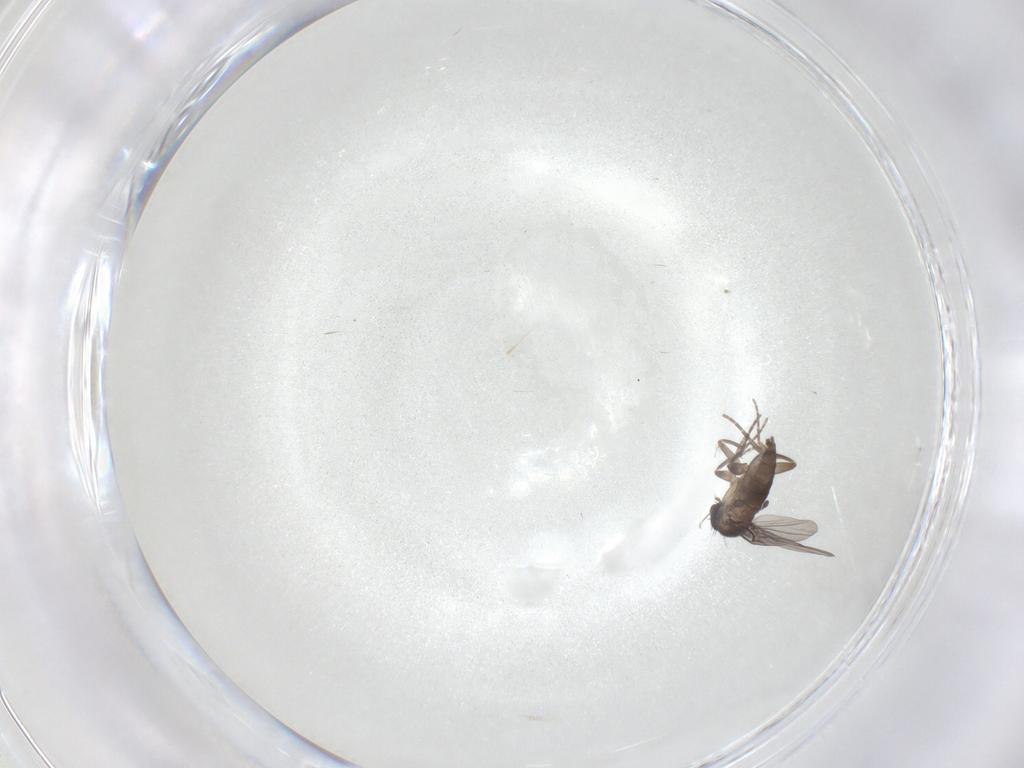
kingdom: Animalia
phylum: Arthropoda
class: Insecta
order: Diptera
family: Phoridae
